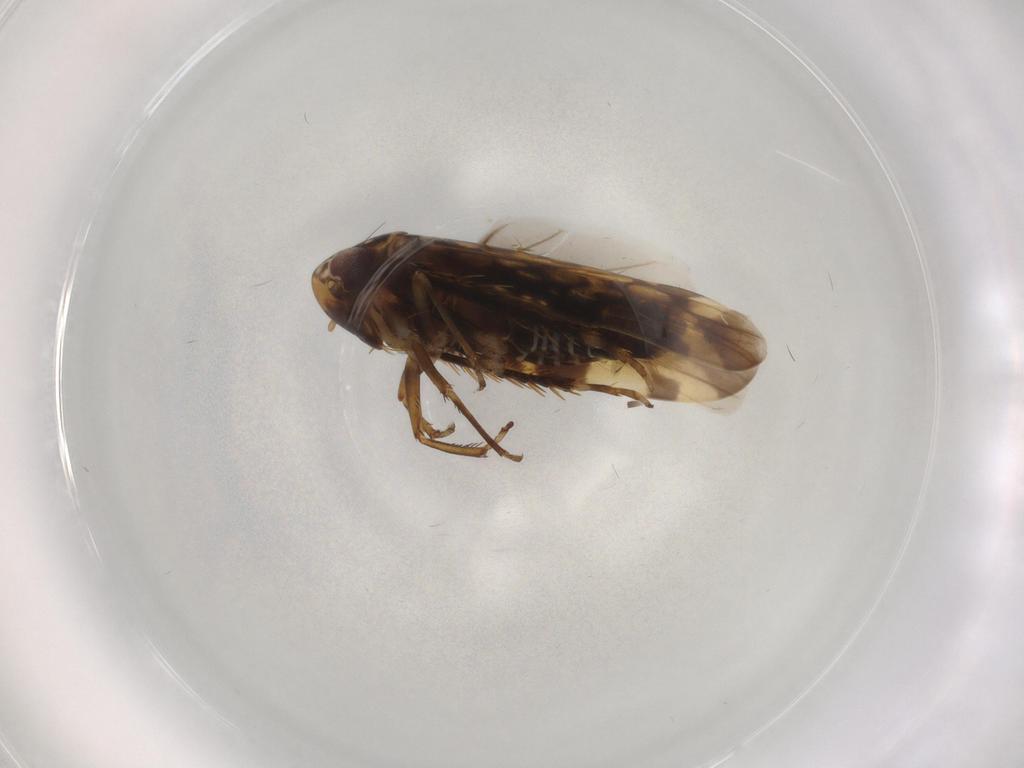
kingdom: Animalia
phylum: Arthropoda
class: Insecta
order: Hemiptera
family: Cicadellidae
